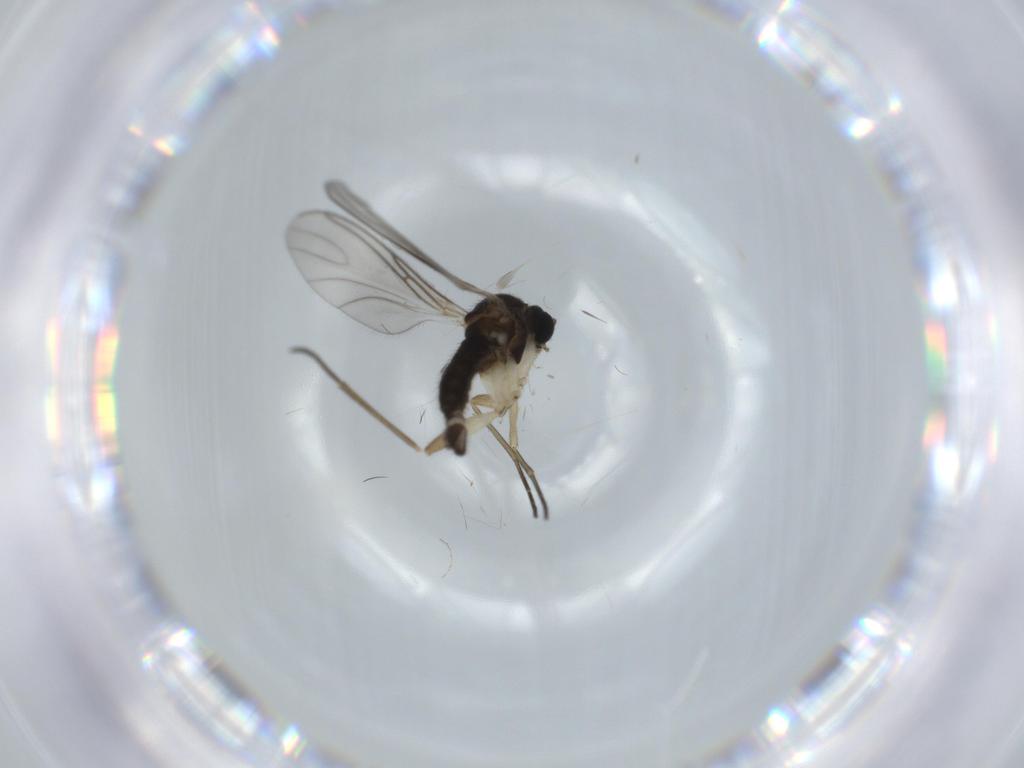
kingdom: Animalia
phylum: Arthropoda
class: Insecta
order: Diptera
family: Sciaridae
